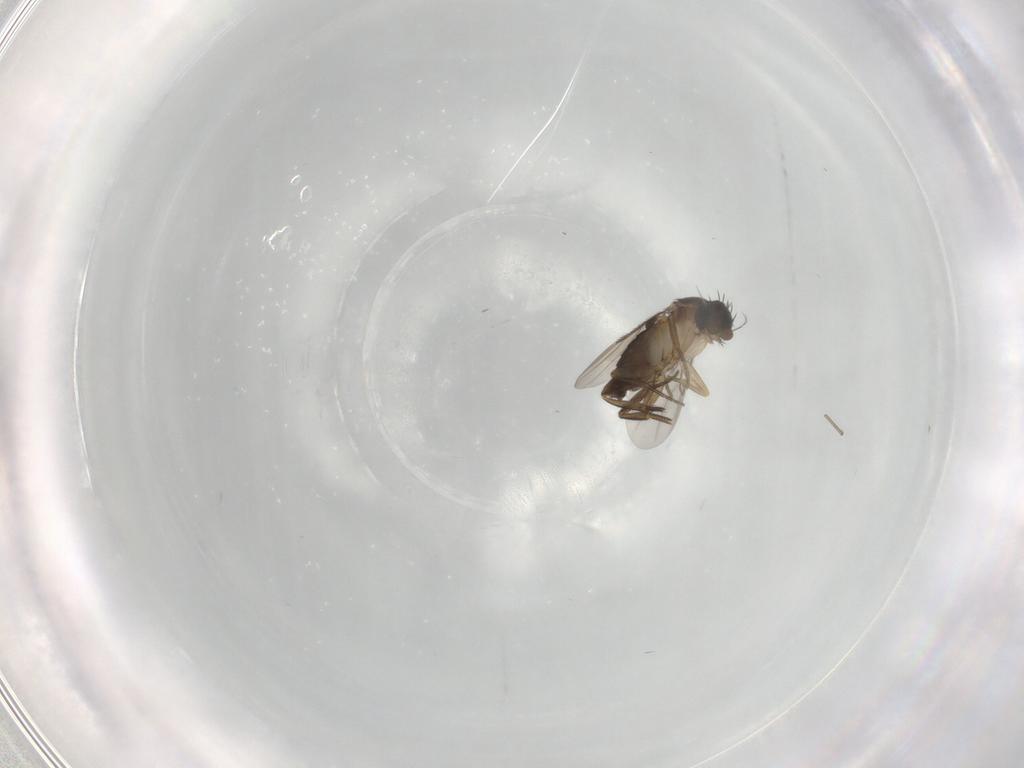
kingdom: Animalia
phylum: Arthropoda
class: Insecta
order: Diptera
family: Phoridae
